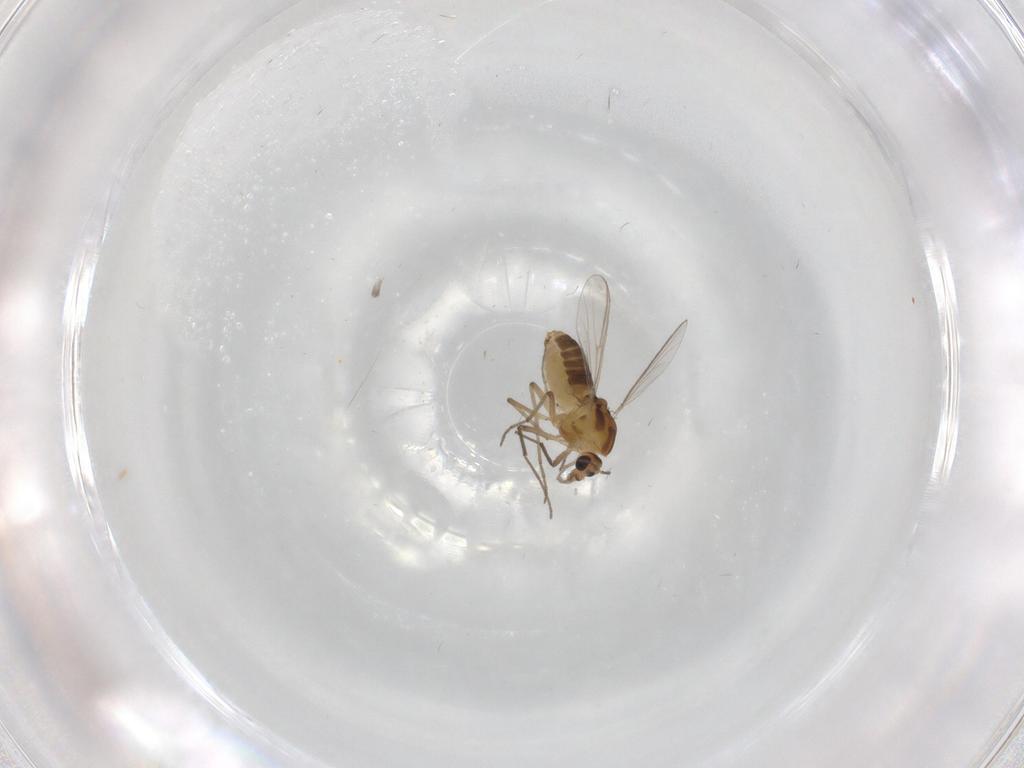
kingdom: Animalia
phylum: Arthropoda
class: Insecta
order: Diptera
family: Chironomidae
